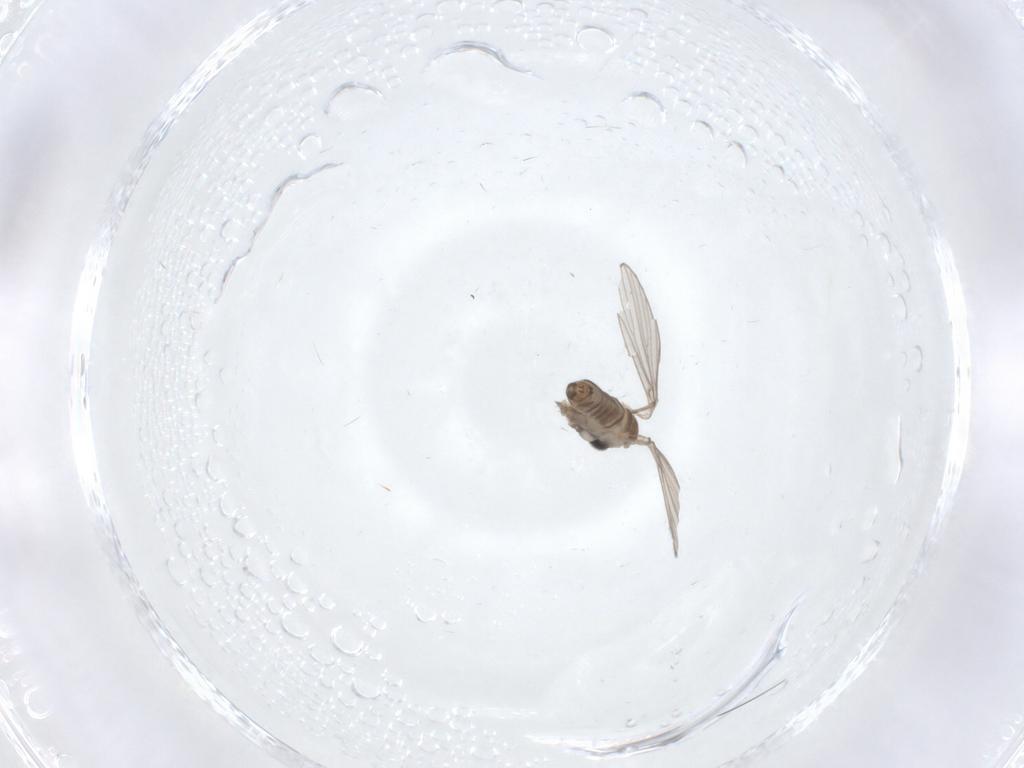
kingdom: Animalia
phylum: Arthropoda
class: Insecta
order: Diptera
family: Psychodidae
